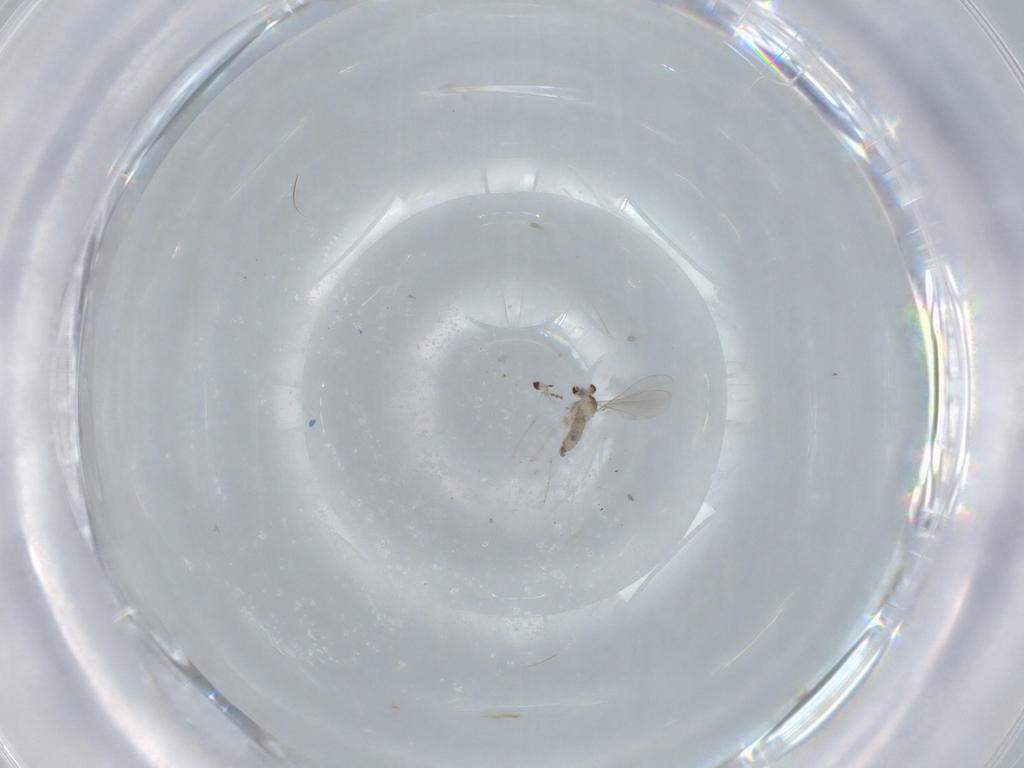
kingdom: Animalia
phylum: Arthropoda
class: Insecta
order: Diptera
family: Cecidomyiidae
